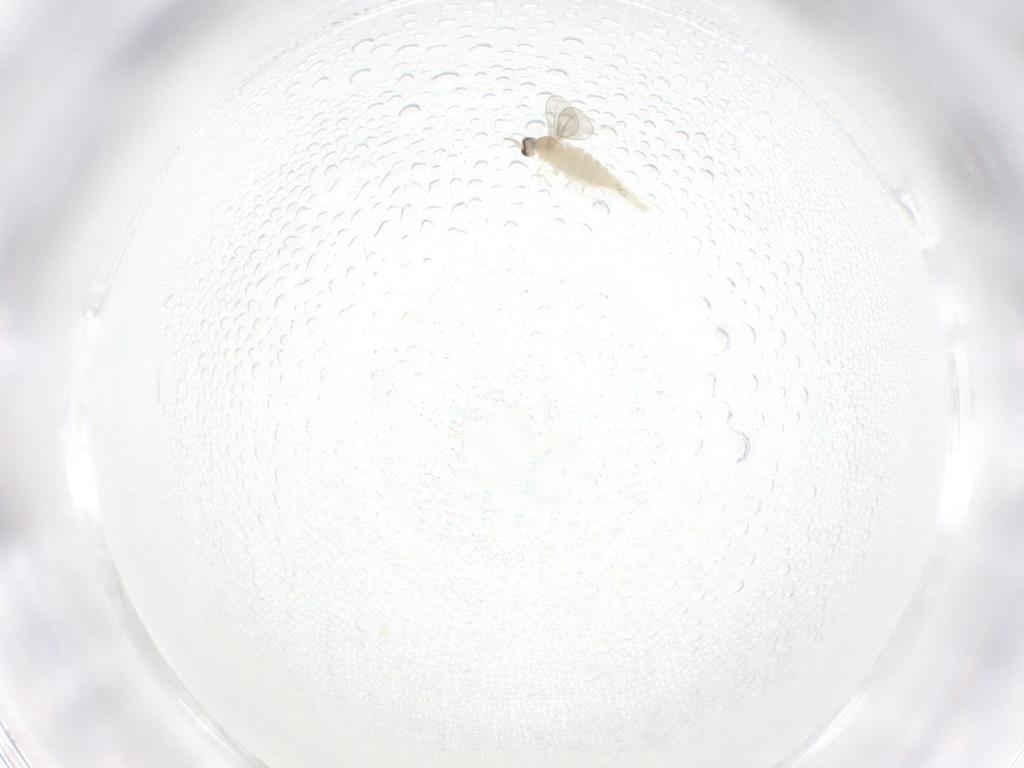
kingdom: Animalia
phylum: Arthropoda
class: Insecta
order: Diptera
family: Cecidomyiidae
